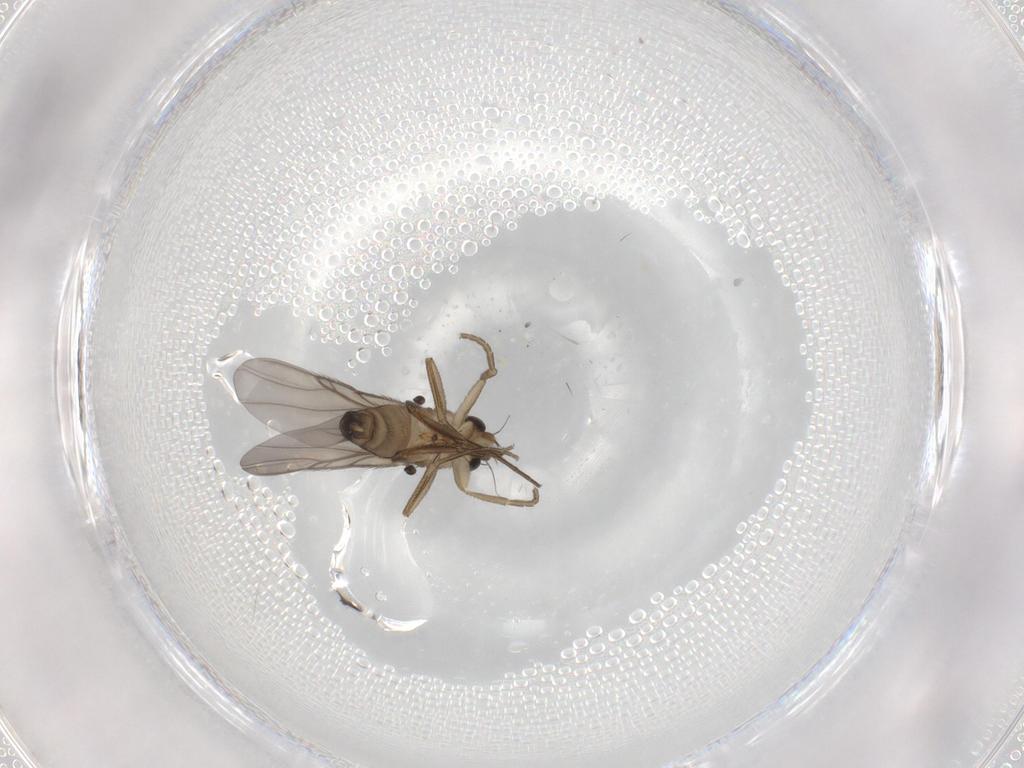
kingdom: Animalia
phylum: Arthropoda
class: Insecta
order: Diptera
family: Phoridae
